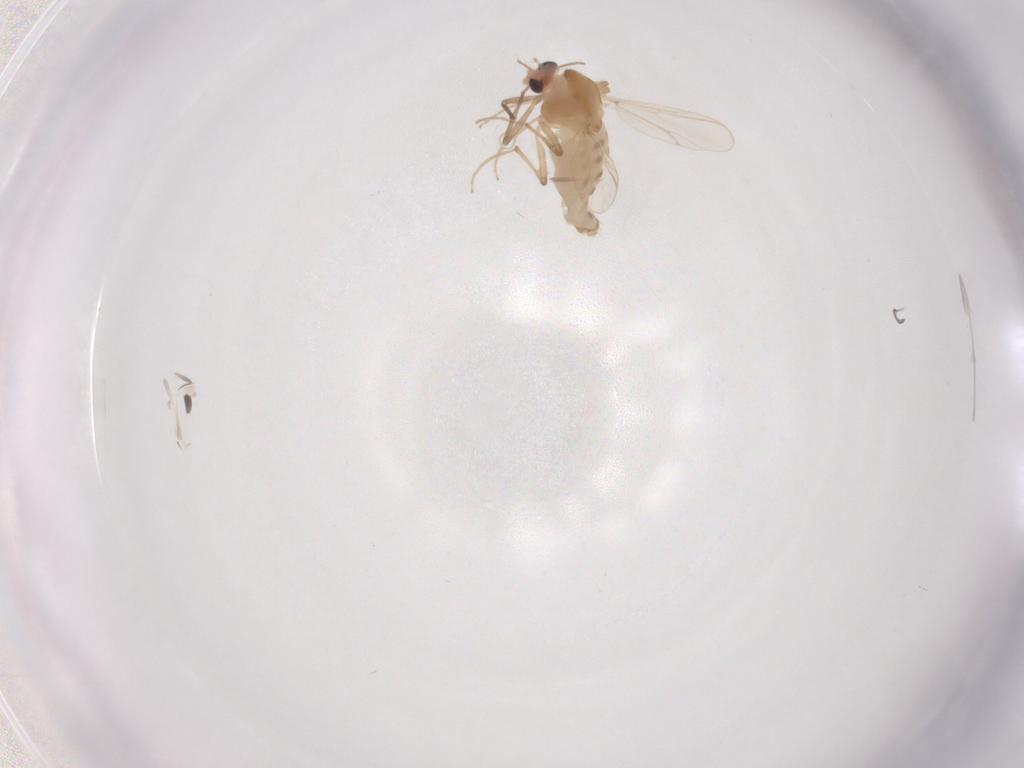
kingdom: Animalia
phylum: Arthropoda
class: Insecta
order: Diptera
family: Chironomidae
